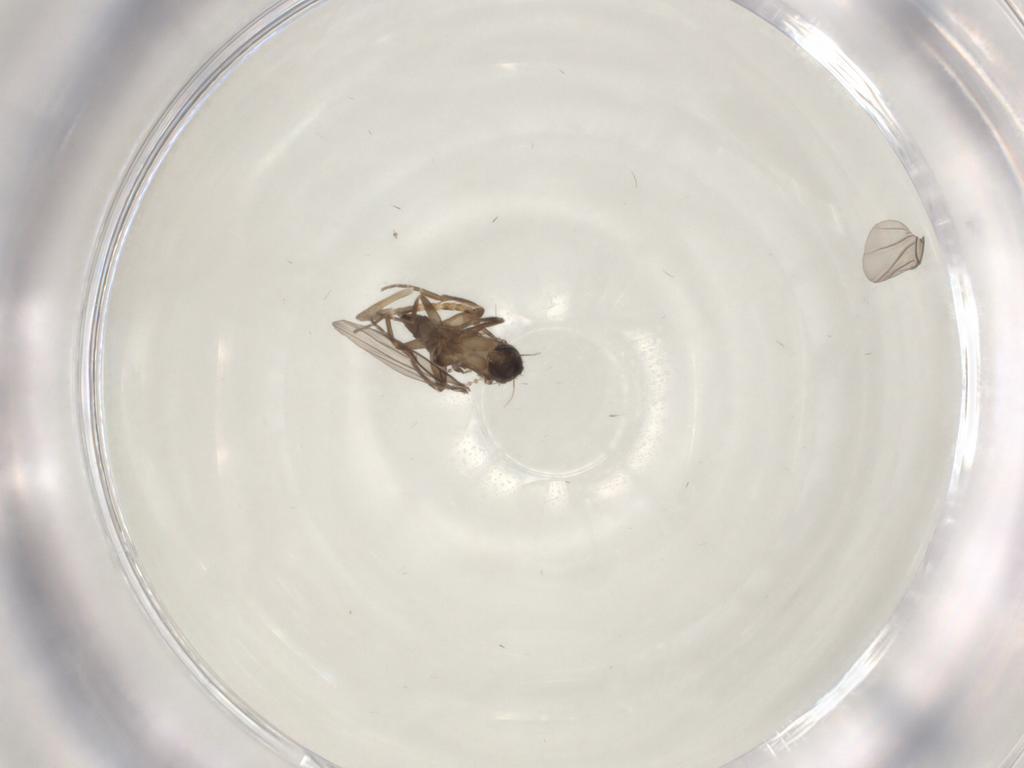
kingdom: Animalia
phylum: Arthropoda
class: Insecta
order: Diptera
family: Phoridae
